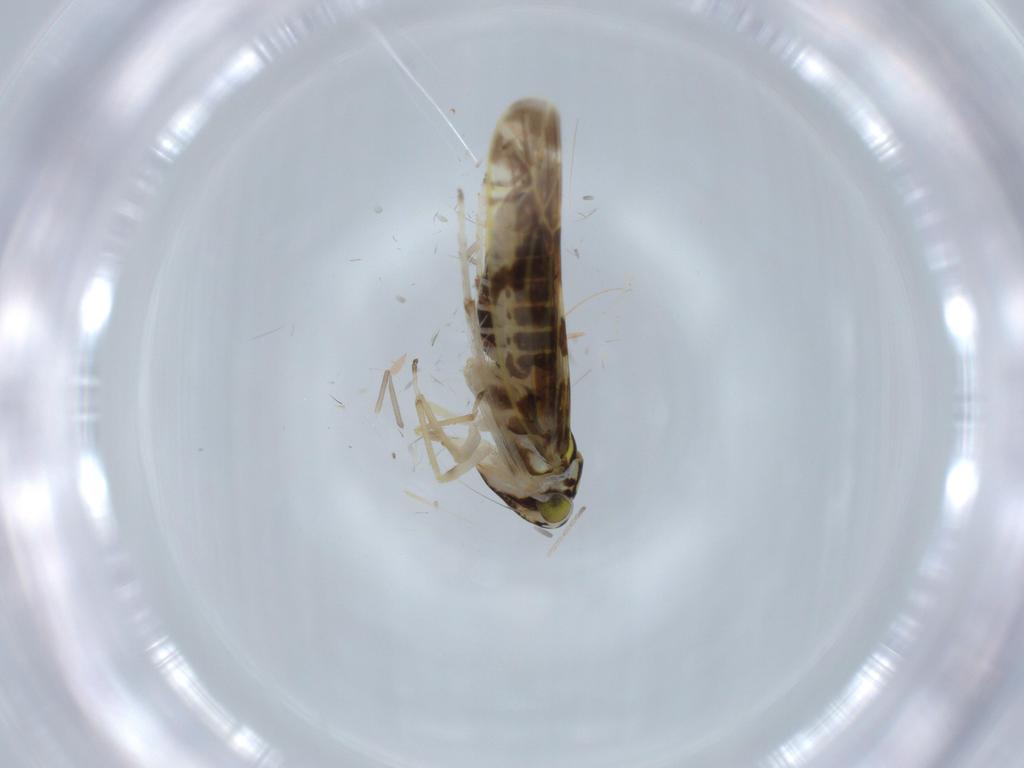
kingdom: Animalia
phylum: Arthropoda
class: Insecta
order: Hemiptera
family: Cicadellidae
